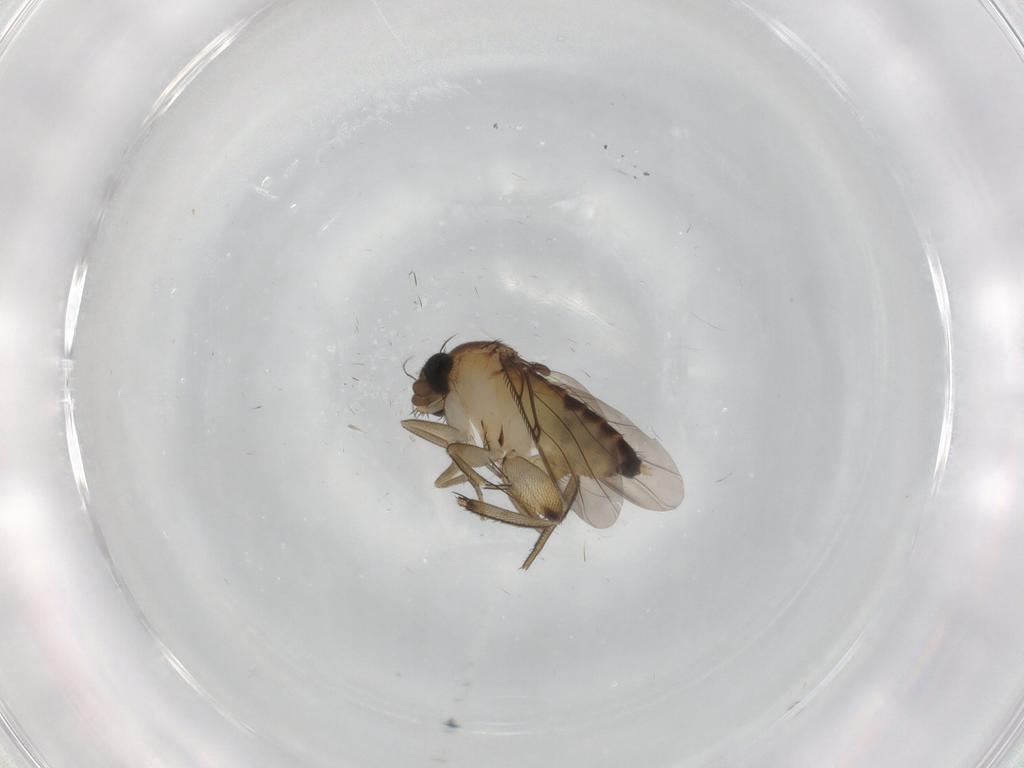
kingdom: Animalia
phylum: Arthropoda
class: Insecta
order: Diptera
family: Phoridae
